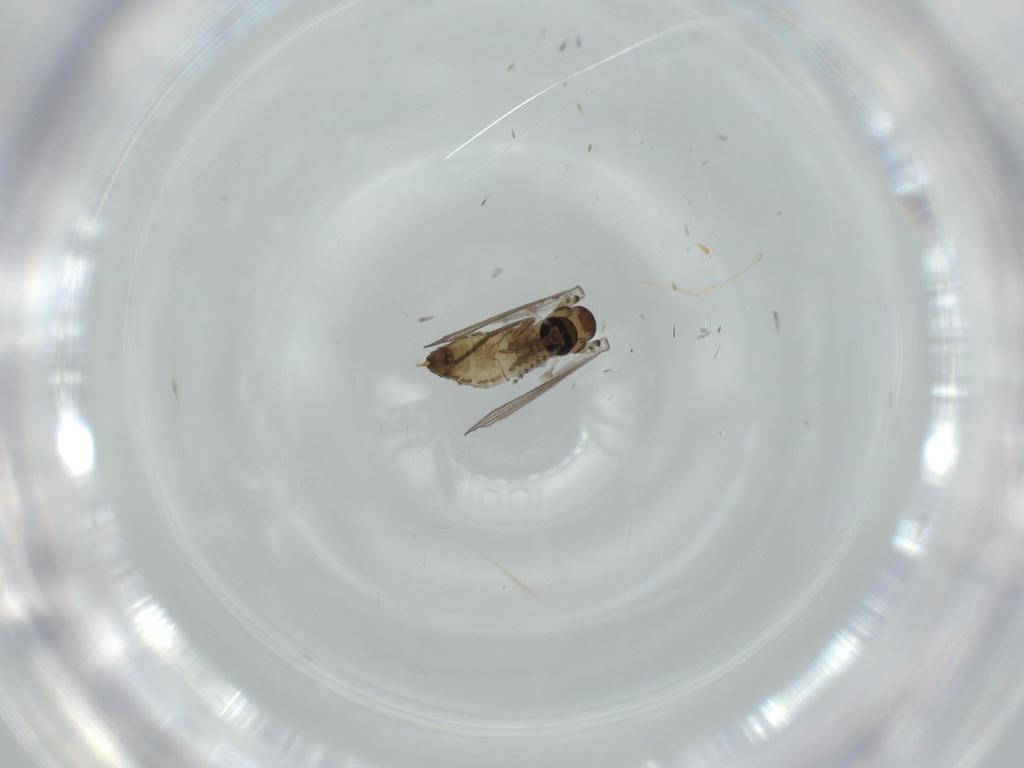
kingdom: Animalia
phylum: Arthropoda
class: Insecta
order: Diptera
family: Psychodidae
